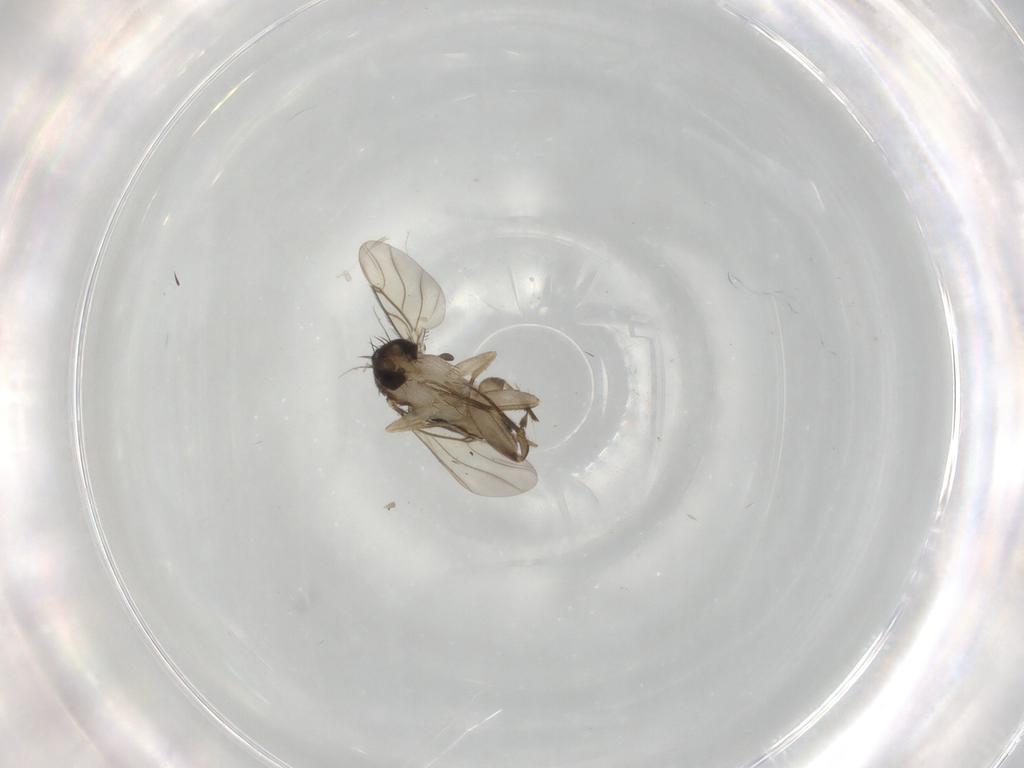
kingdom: Animalia
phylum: Arthropoda
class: Insecta
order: Diptera
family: Phoridae
